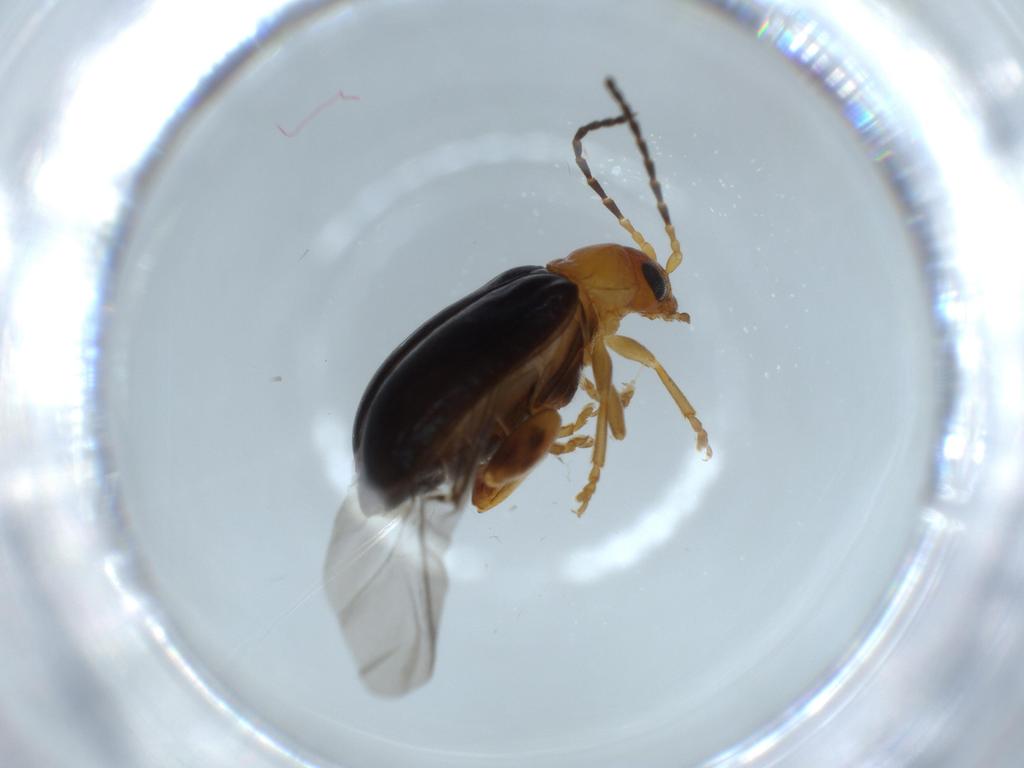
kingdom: Animalia
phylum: Arthropoda
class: Insecta
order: Coleoptera
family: Chrysomelidae
